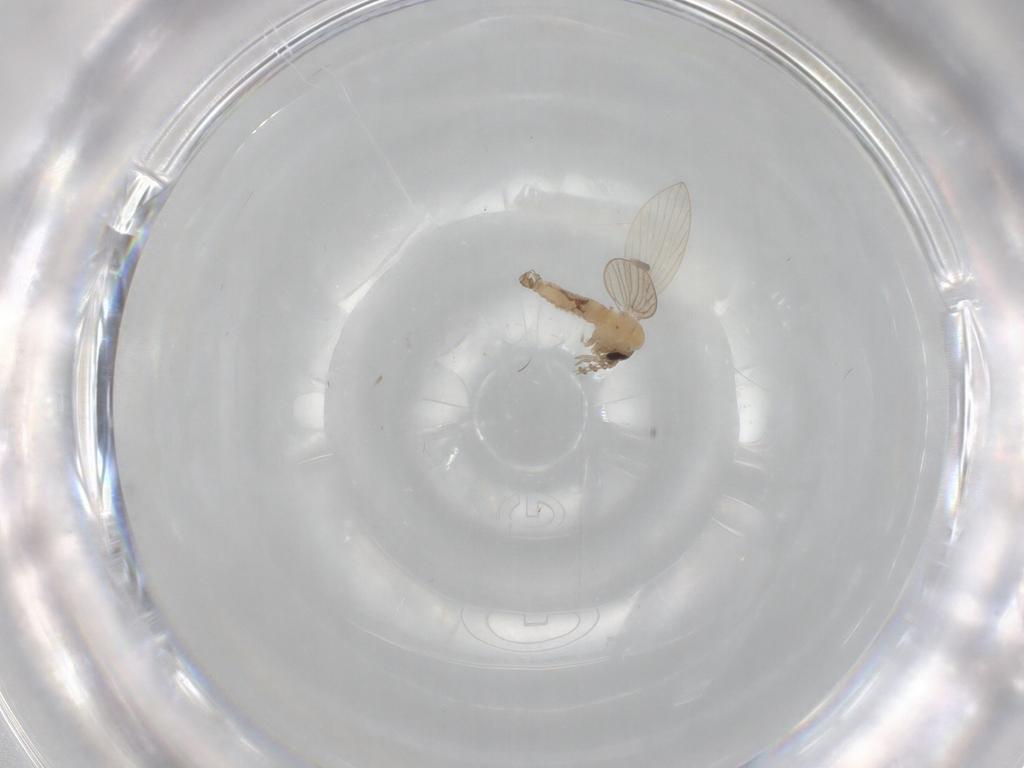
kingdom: Animalia
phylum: Arthropoda
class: Insecta
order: Diptera
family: Psychodidae
